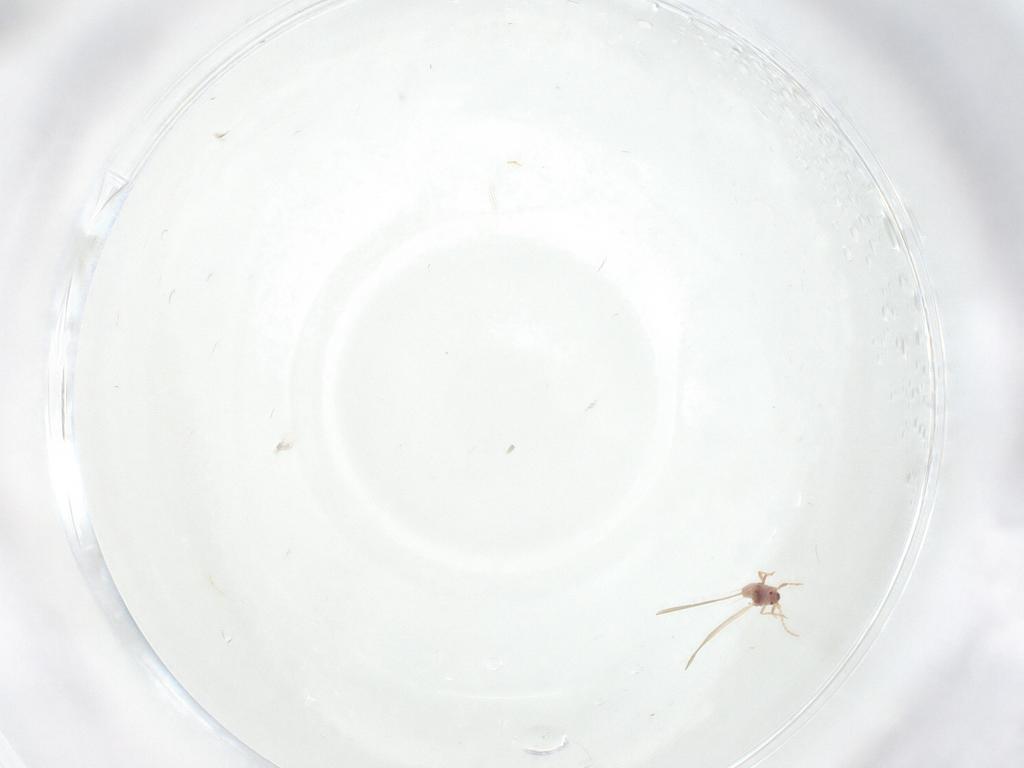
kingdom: Animalia
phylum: Arthropoda
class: Insecta
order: Hemiptera
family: Pseudococcidae
